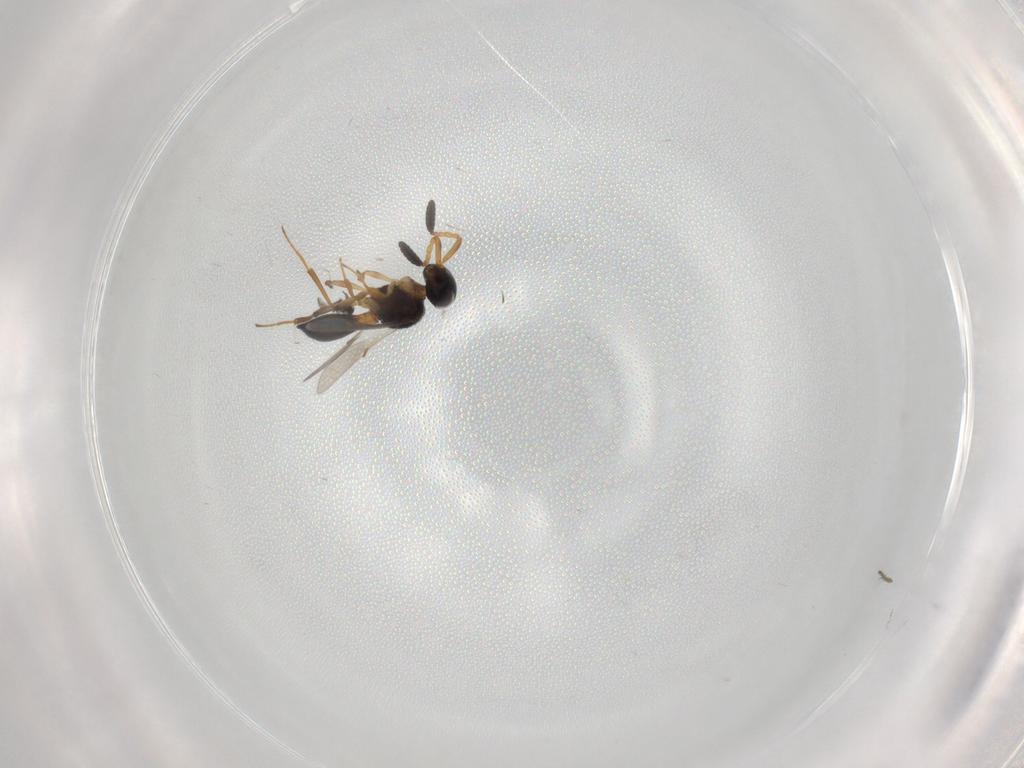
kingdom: Animalia
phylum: Arthropoda
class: Insecta
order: Hymenoptera
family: Scelionidae
